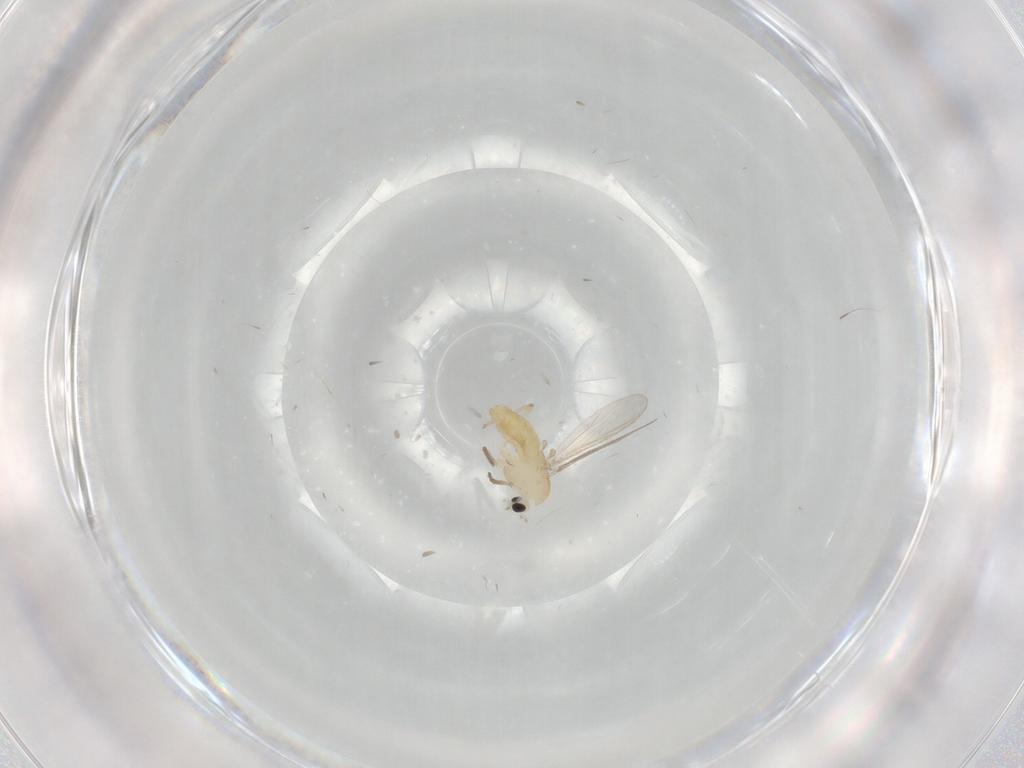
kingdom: Animalia
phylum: Arthropoda
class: Insecta
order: Diptera
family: Chironomidae
